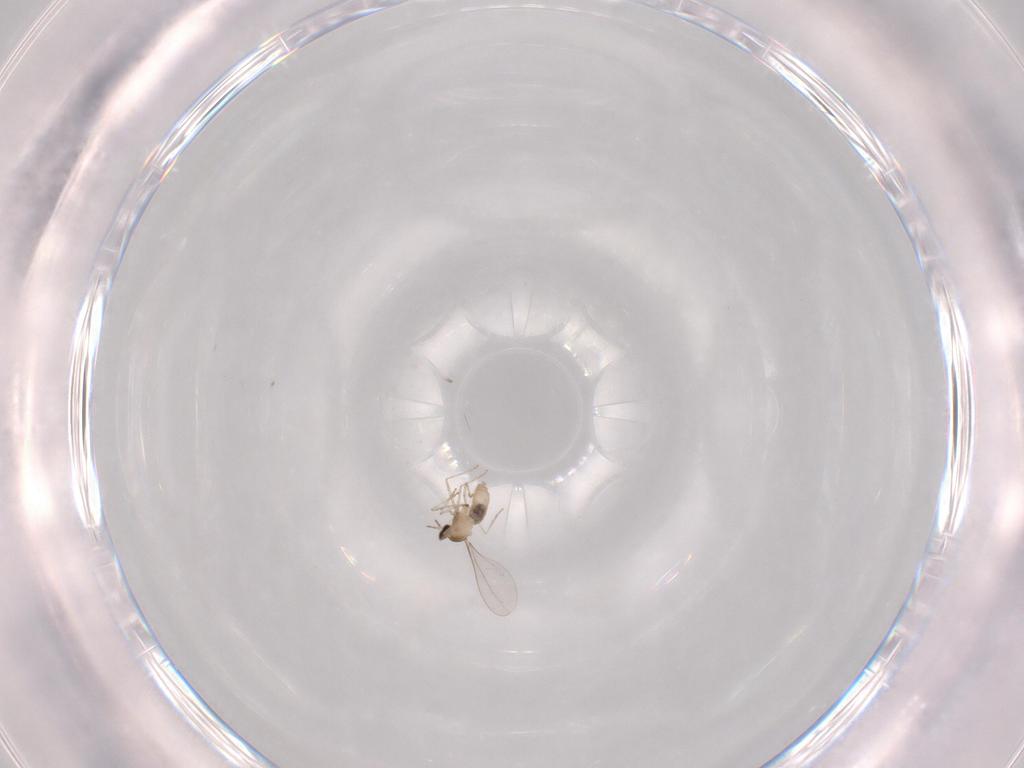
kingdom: Animalia
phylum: Arthropoda
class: Insecta
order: Diptera
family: Cecidomyiidae
